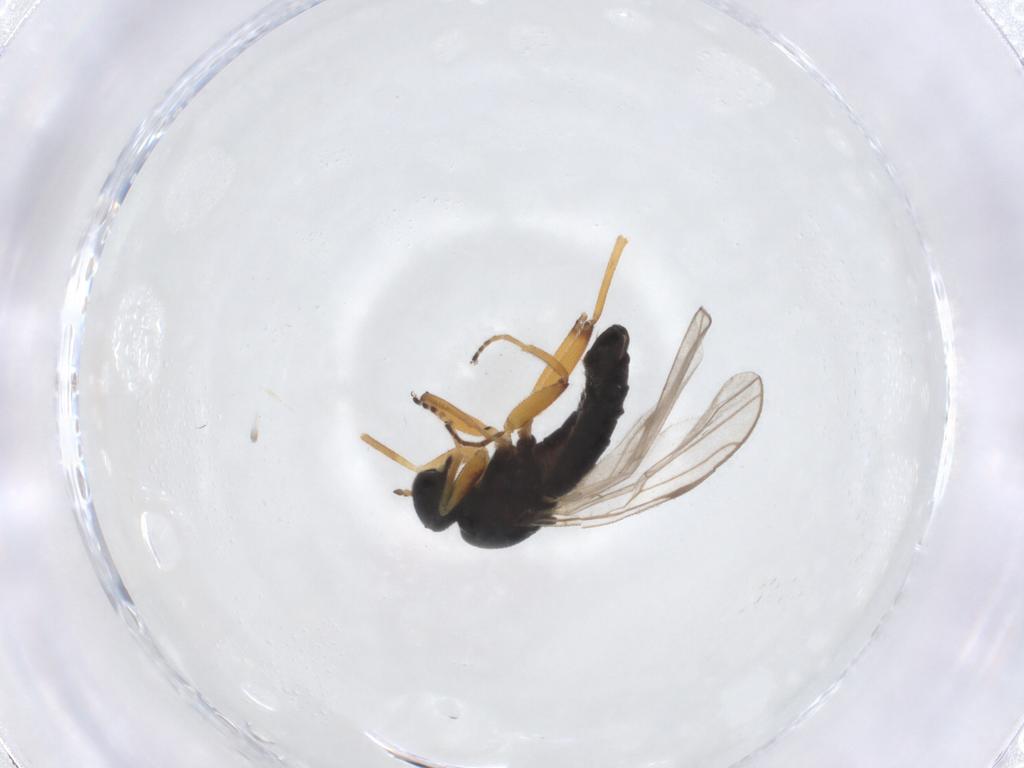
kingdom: Animalia
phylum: Arthropoda
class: Insecta
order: Diptera
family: Hybotidae
